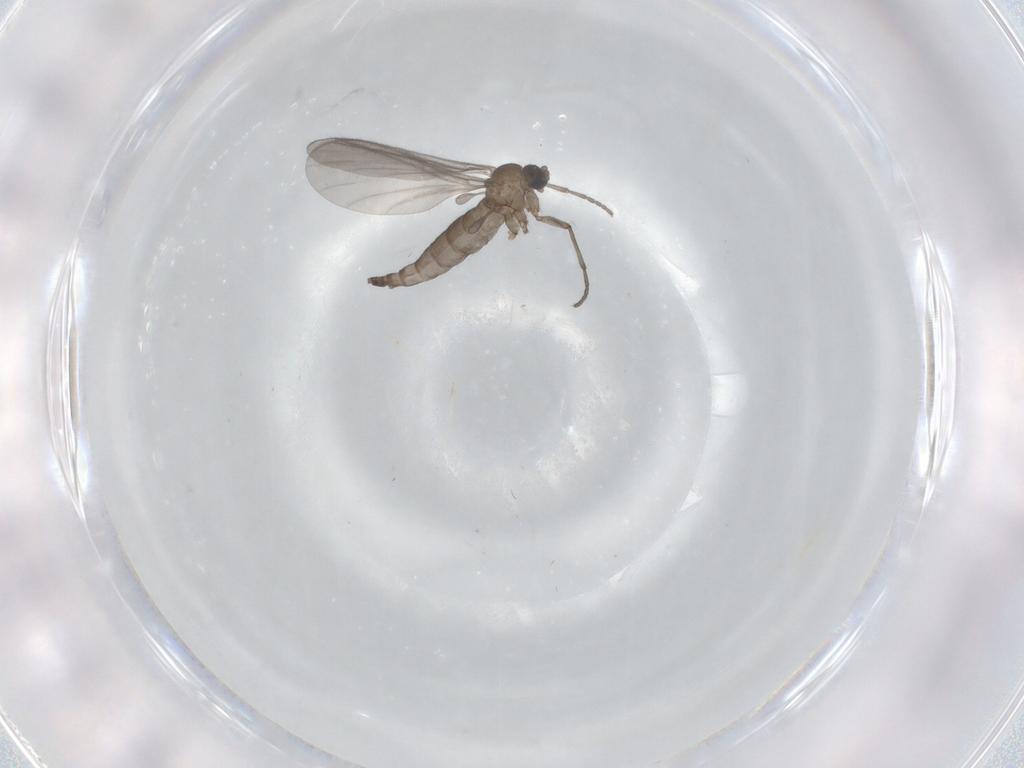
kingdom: Animalia
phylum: Arthropoda
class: Insecta
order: Diptera
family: Sciaridae
